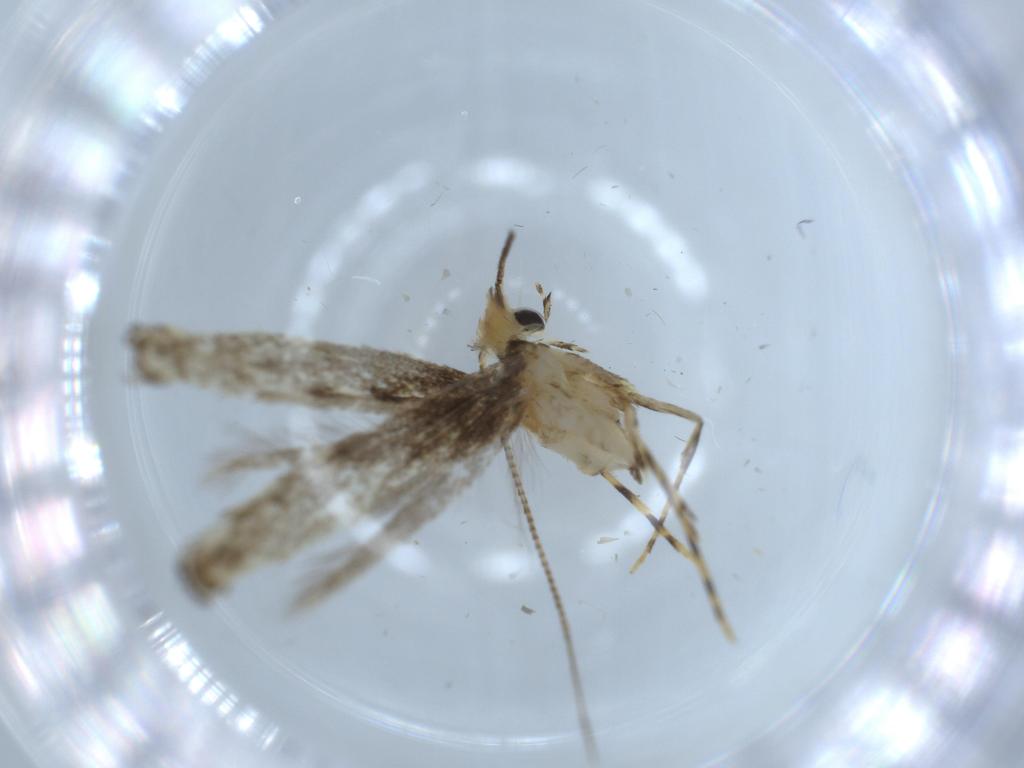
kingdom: Animalia
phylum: Arthropoda
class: Insecta
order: Lepidoptera
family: Gracillariidae
